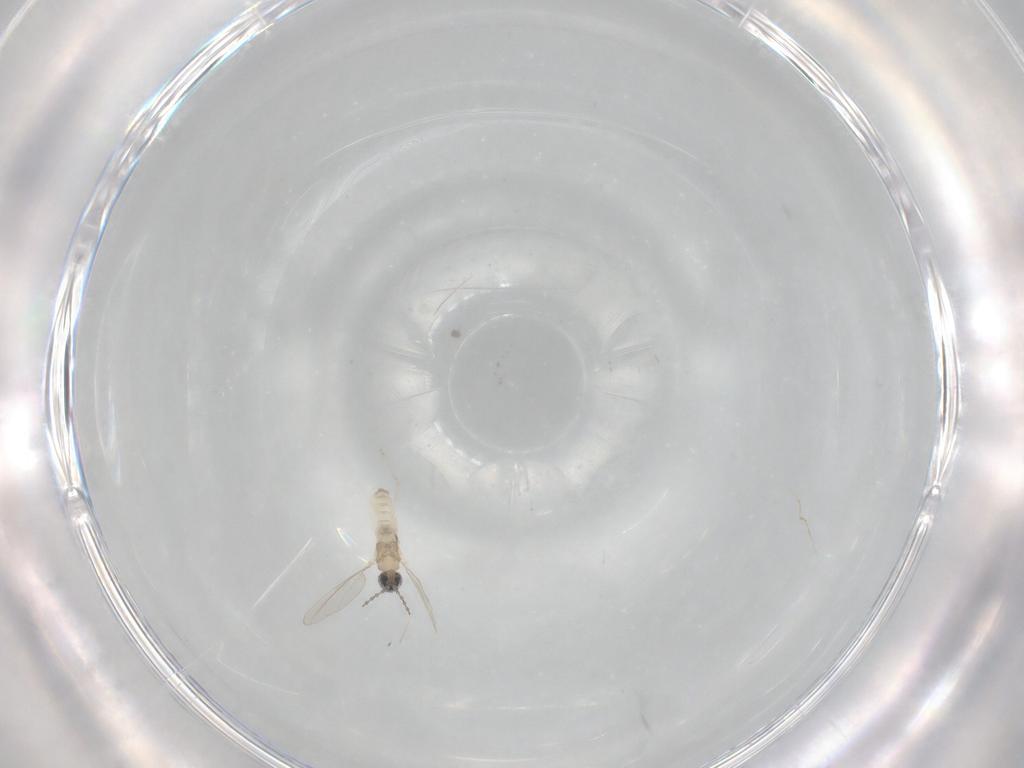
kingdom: Animalia
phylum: Arthropoda
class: Insecta
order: Diptera
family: Cecidomyiidae
